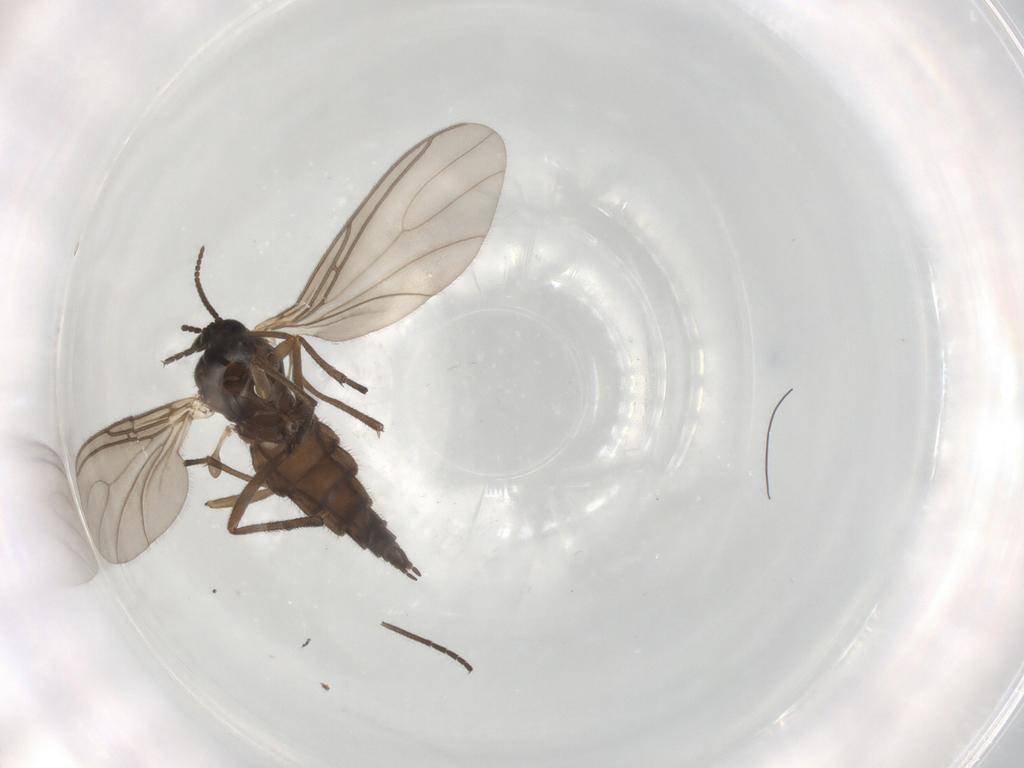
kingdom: Animalia
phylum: Arthropoda
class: Insecta
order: Diptera
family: Sciaridae
